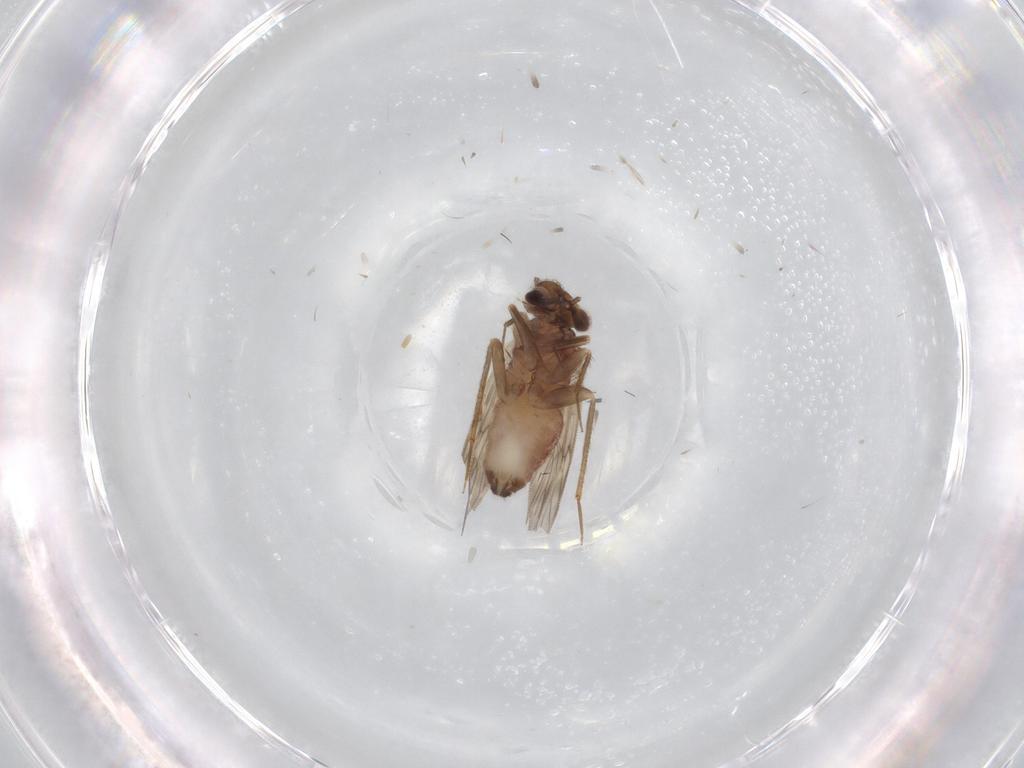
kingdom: Animalia
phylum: Arthropoda
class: Insecta
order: Psocodea
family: Lepidopsocidae
